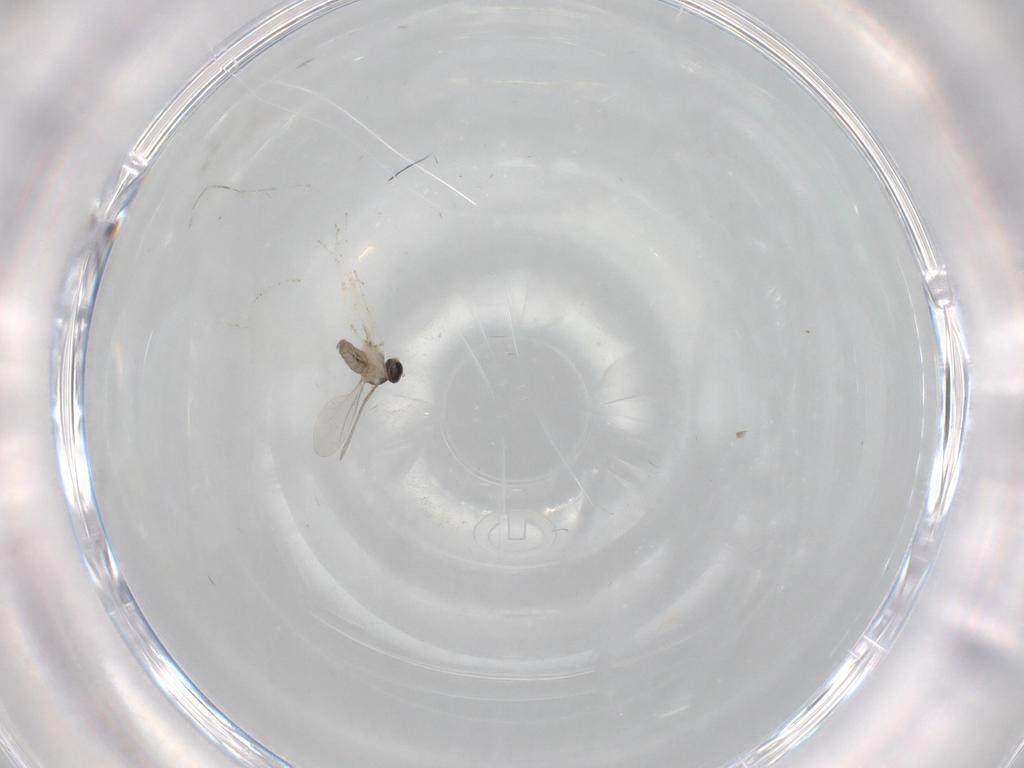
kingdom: Animalia
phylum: Arthropoda
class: Insecta
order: Diptera
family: Cecidomyiidae
